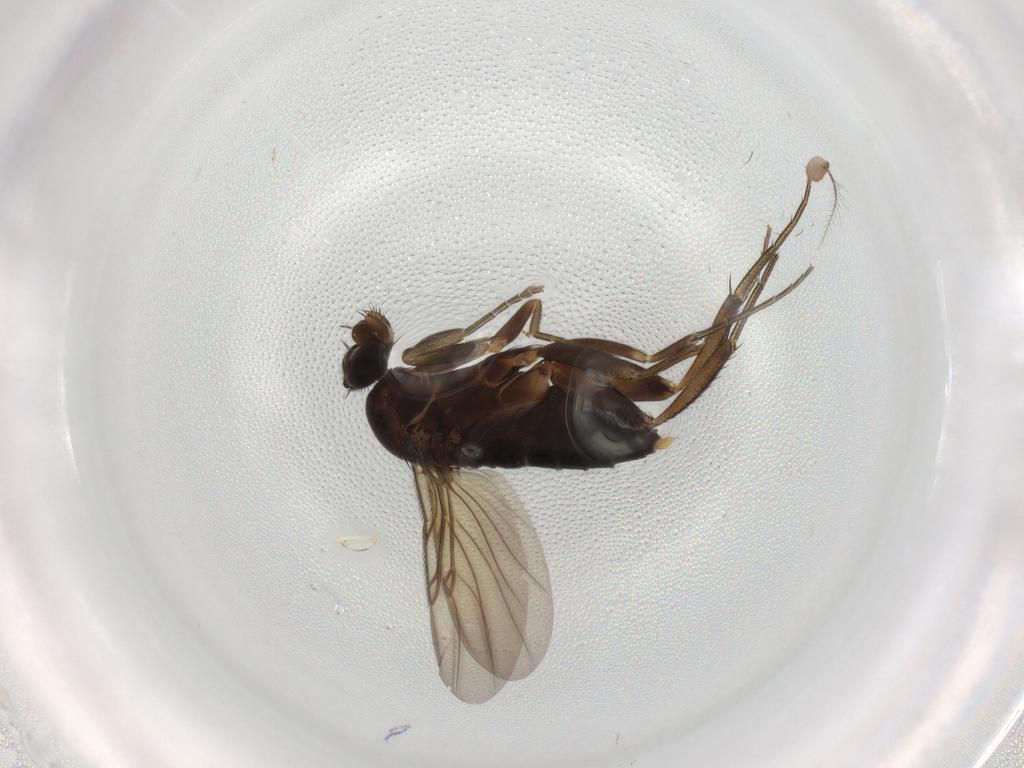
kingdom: Animalia
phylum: Arthropoda
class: Insecta
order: Diptera
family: Phoridae
